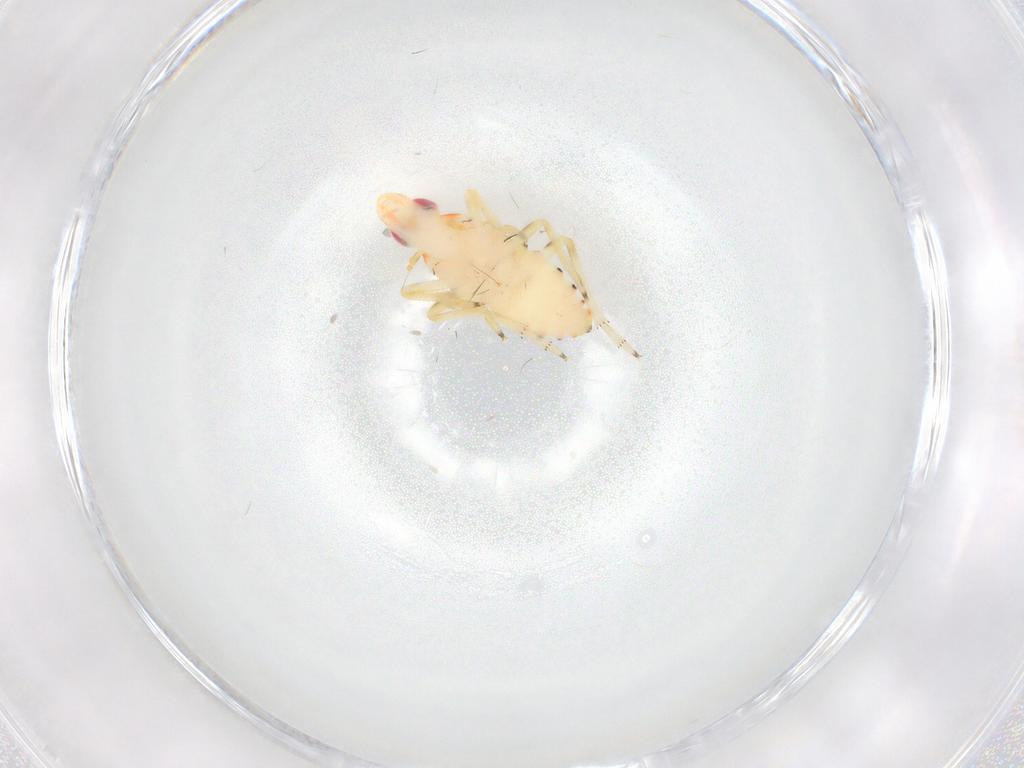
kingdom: Animalia
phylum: Arthropoda
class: Insecta
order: Hemiptera
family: Tropiduchidae
